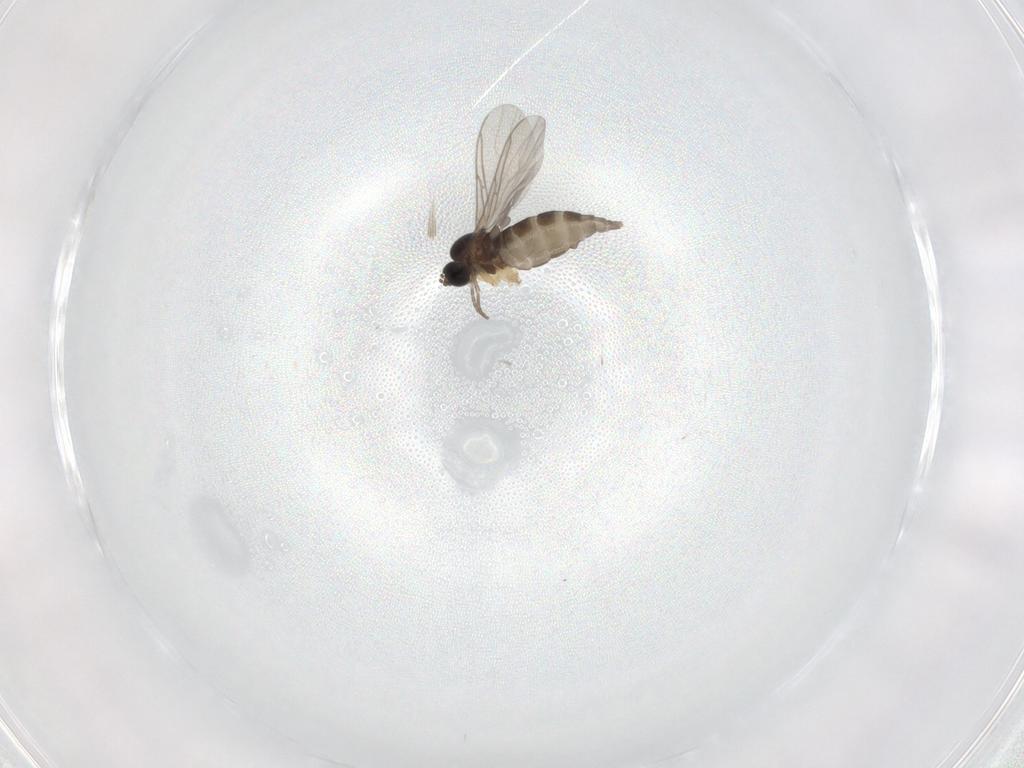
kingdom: Animalia
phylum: Arthropoda
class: Insecta
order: Diptera
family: Sciaridae
